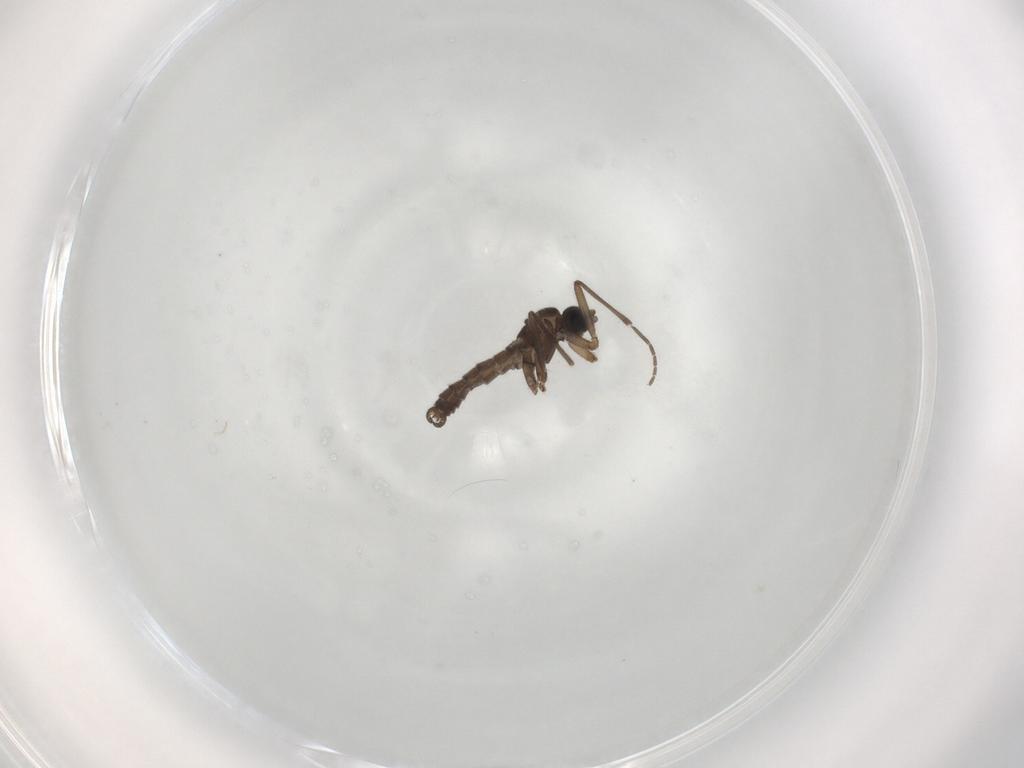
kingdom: Animalia
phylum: Arthropoda
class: Insecta
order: Diptera
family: Sciaridae
